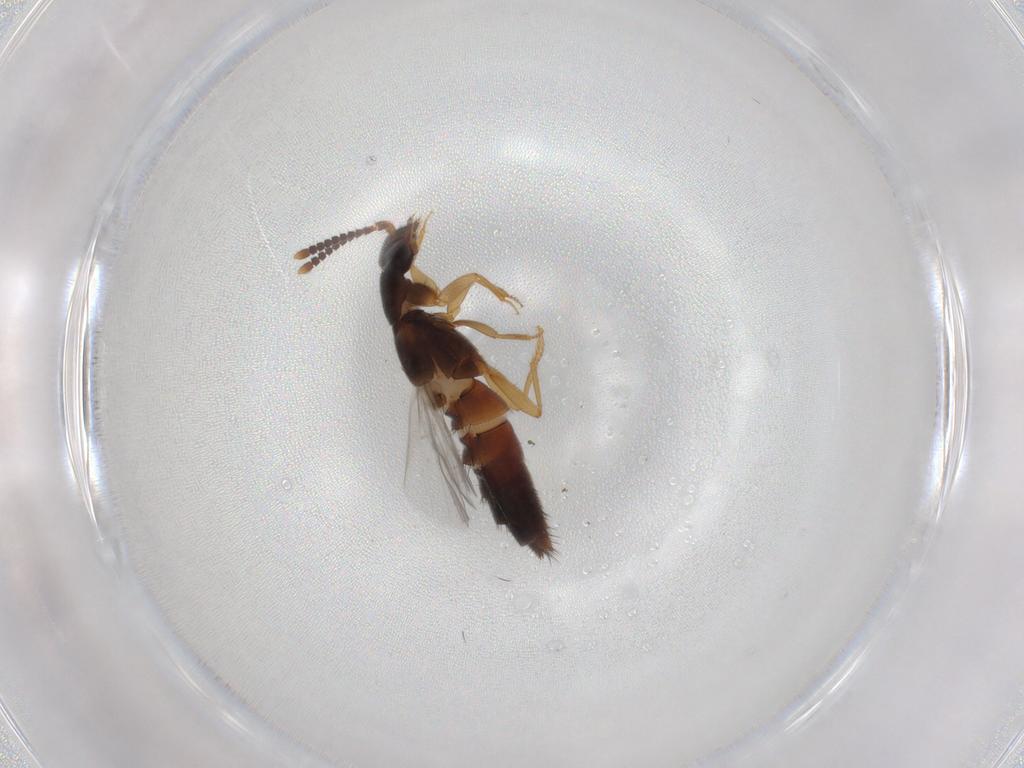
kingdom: Animalia
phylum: Arthropoda
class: Insecta
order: Coleoptera
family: Staphylinidae
